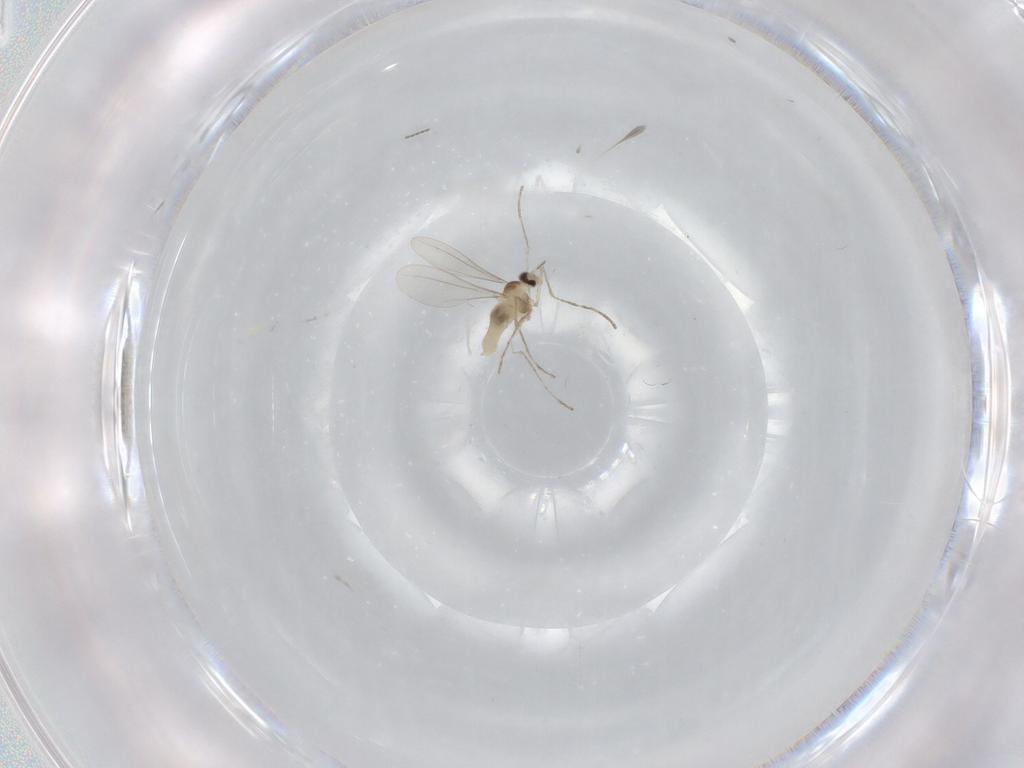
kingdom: Animalia
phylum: Arthropoda
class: Insecta
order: Diptera
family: Cecidomyiidae
